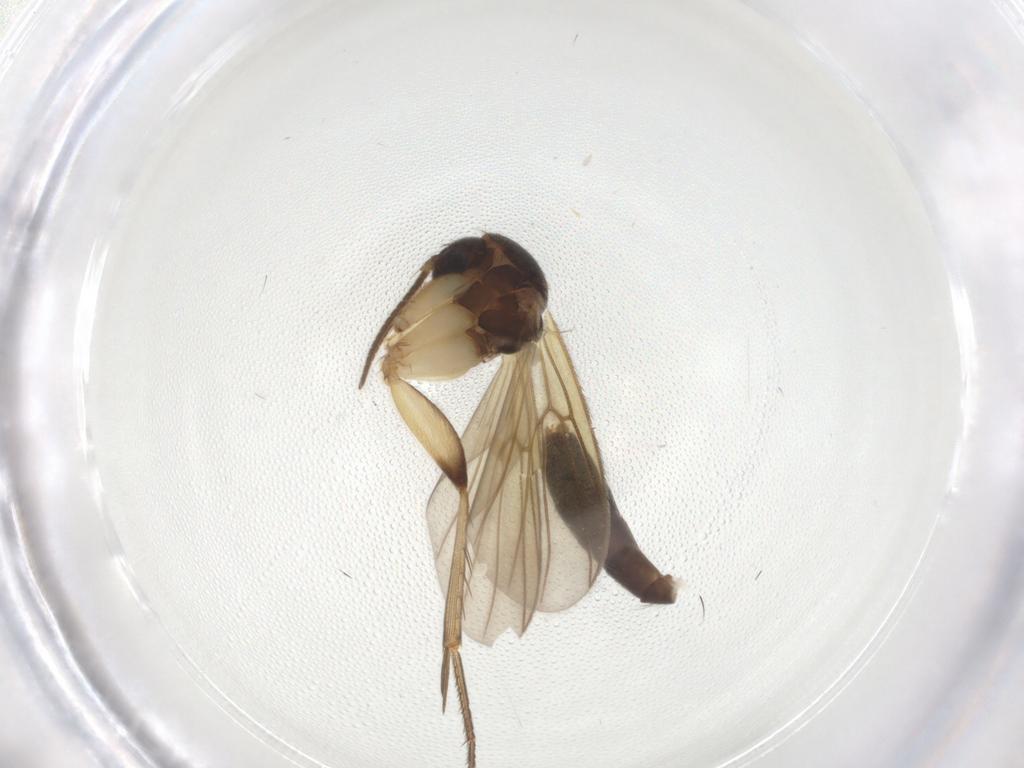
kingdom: Animalia
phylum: Arthropoda
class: Insecta
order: Diptera
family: Mycetophilidae
